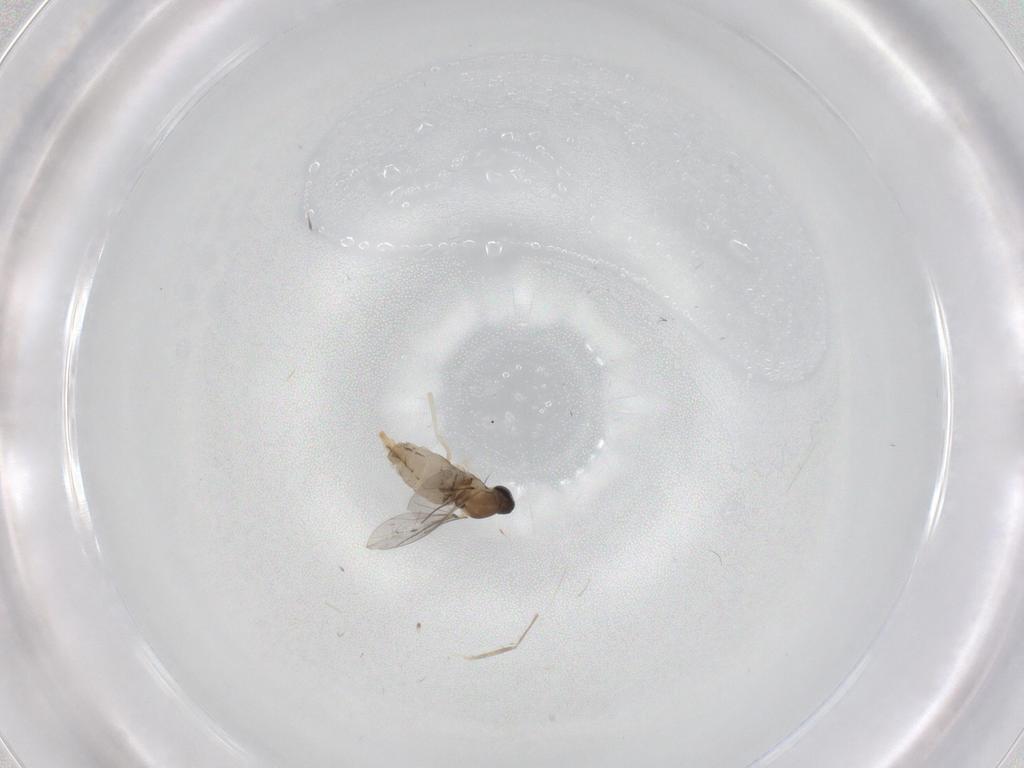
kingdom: Animalia
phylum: Arthropoda
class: Insecta
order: Diptera
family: Cecidomyiidae
